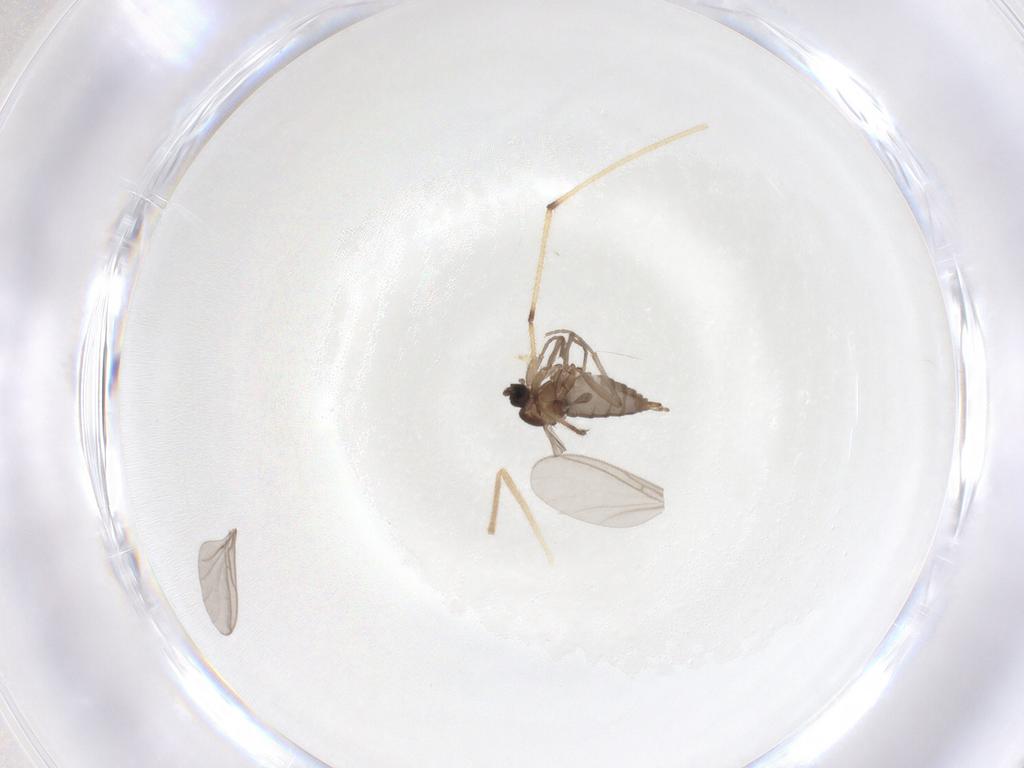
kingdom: Animalia
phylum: Arthropoda
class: Insecta
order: Diptera
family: Sciaridae
